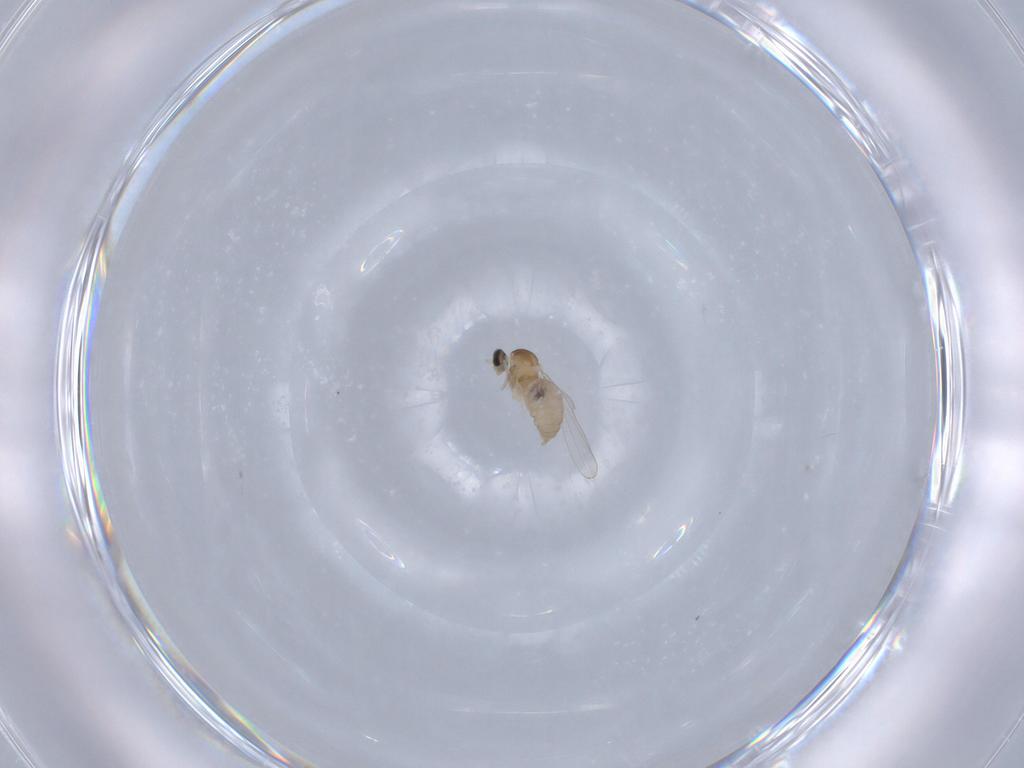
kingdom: Animalia
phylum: Arthropoda
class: Insecta
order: Diptera
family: Cecidomyiidae
